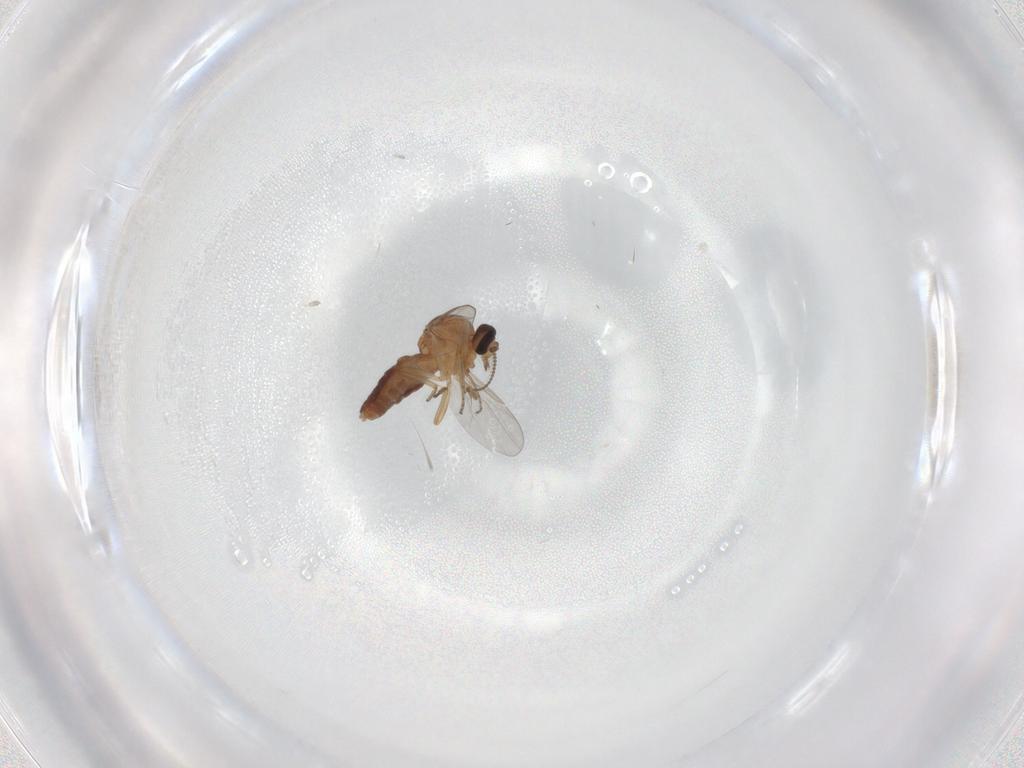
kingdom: Animalia
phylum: Arthropoda
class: Insecta
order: Diptera
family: Ceratopogonidae
